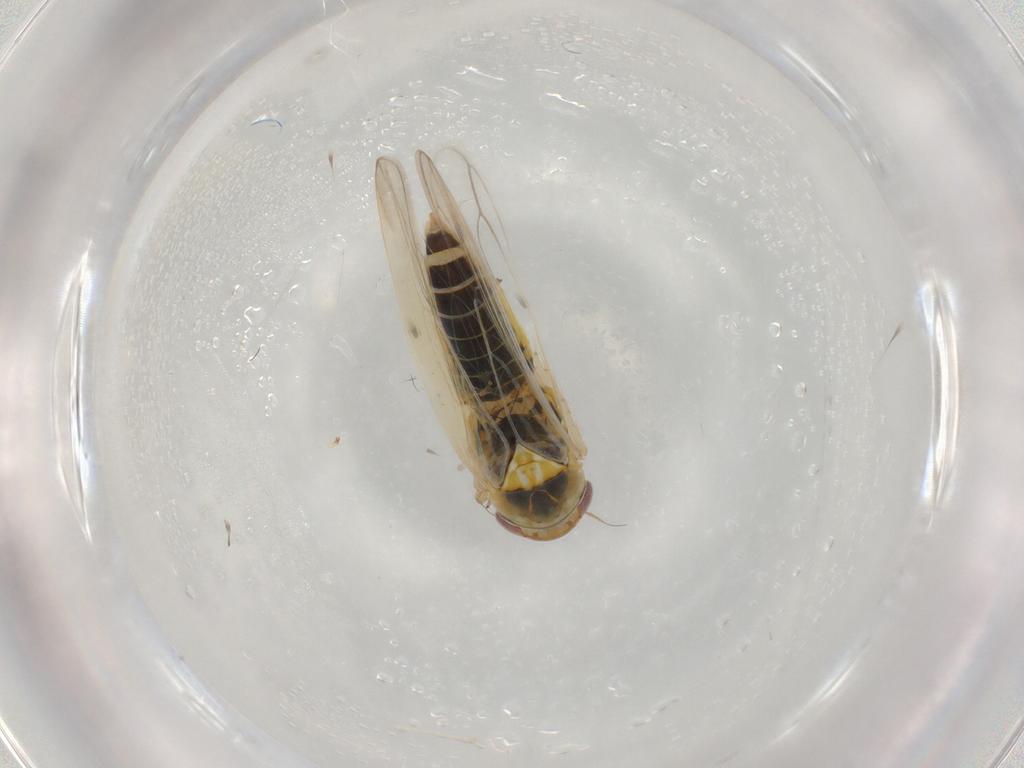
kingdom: Animalia
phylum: Arthropoda
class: Insecta
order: Hemiptera
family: Cicadellidae
